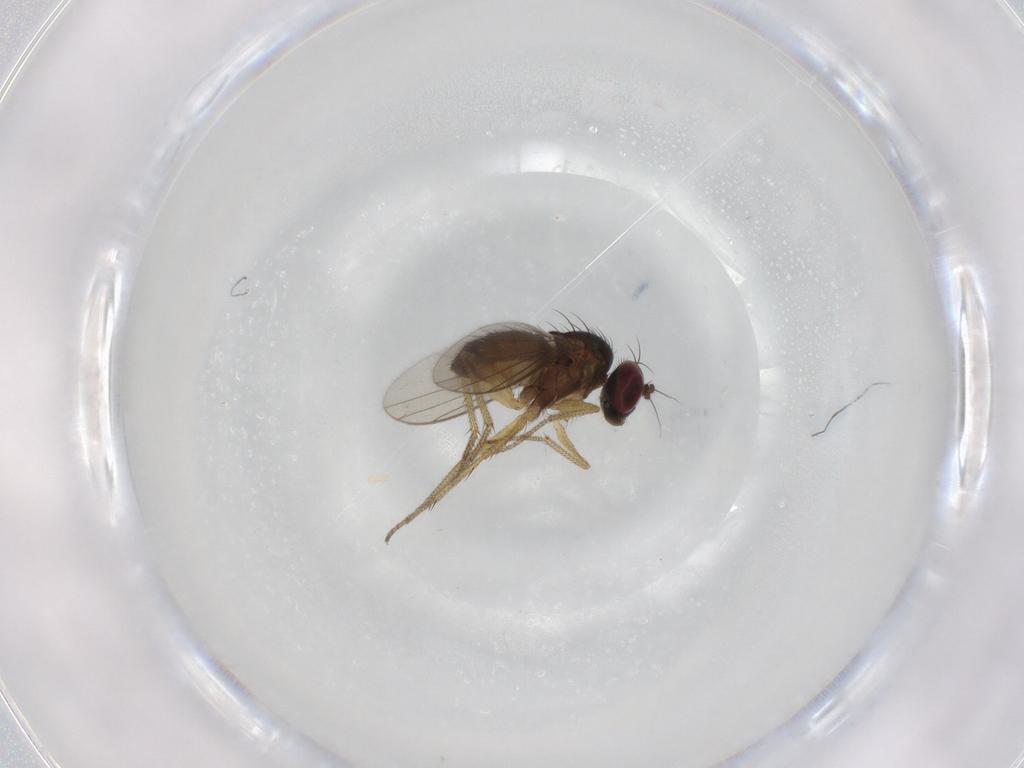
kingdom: Animalia
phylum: Arthropoda
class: Insecta
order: Diptera
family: Dolichopodidae
